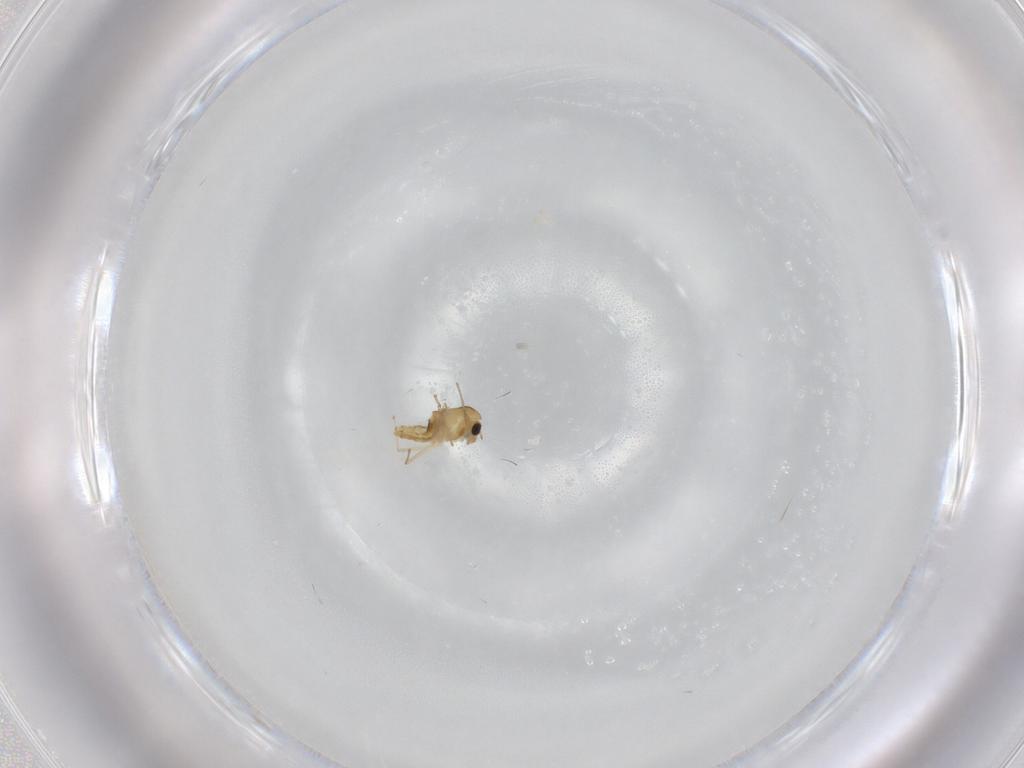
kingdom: Animalia
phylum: Arthropoda
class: Insecta
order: Diptera
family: Chironomidae
